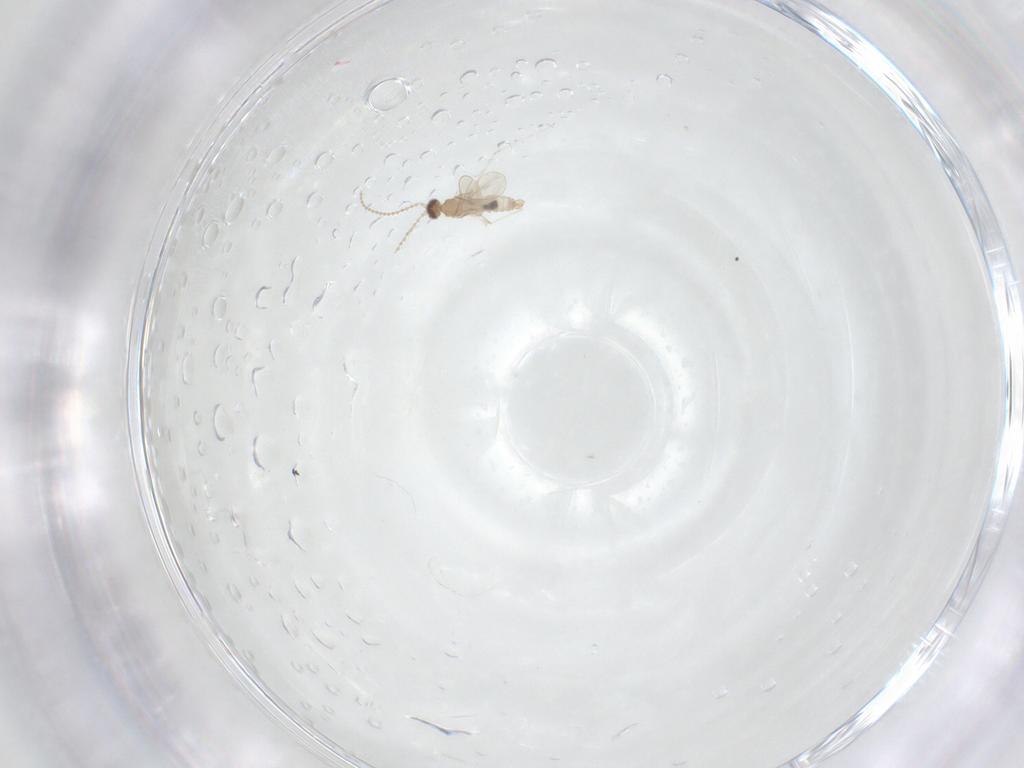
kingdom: Animalia
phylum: Arthropoda
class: Insecta
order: Diptera
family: Cecidomyiidae
